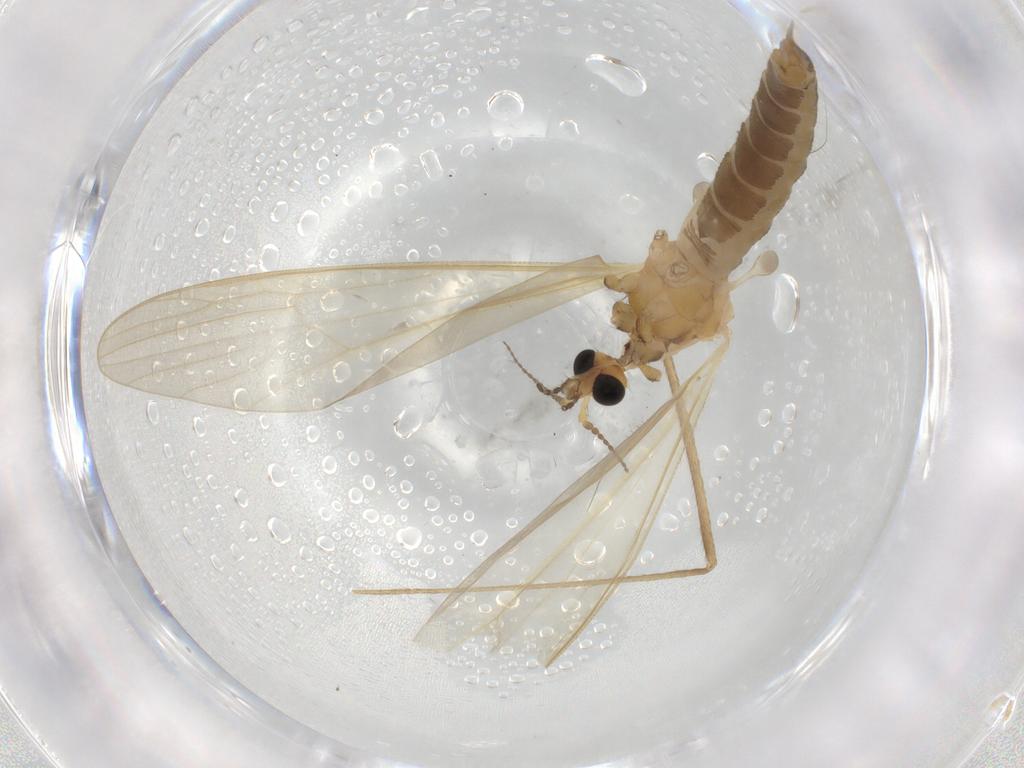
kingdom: Animalia
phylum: Arthropoda
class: Insecta
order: Diptera
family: Limoniidae
